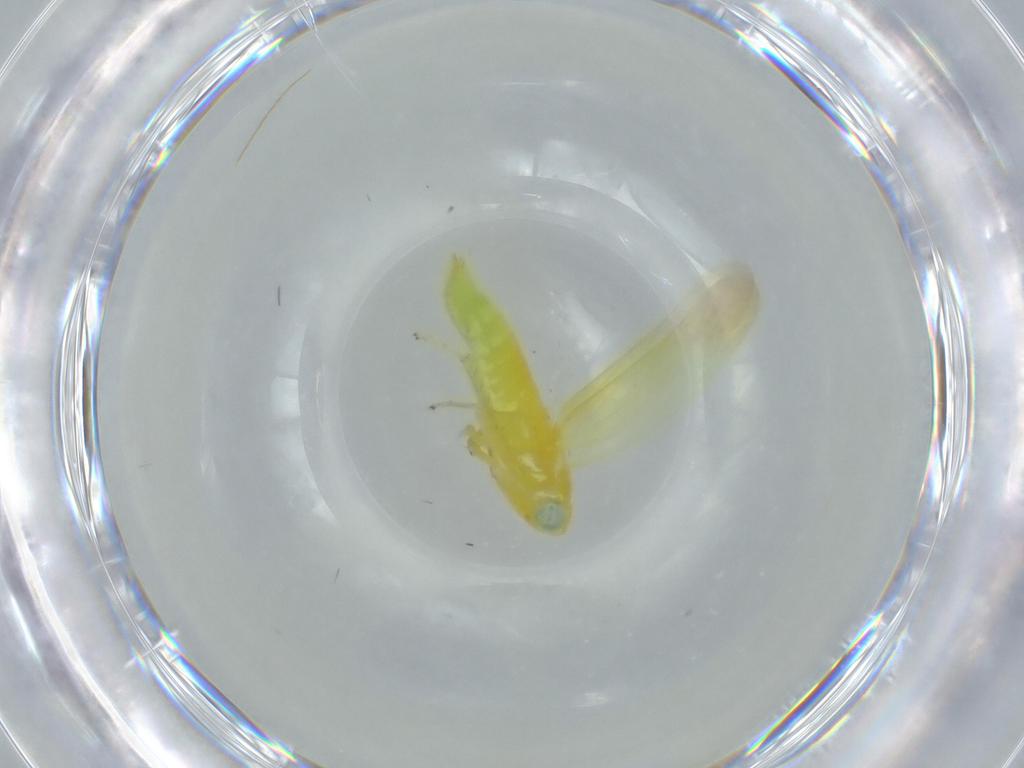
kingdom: Animalia
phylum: Arthropoda
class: Insecta
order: Hemiptera
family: Cicadellidae
